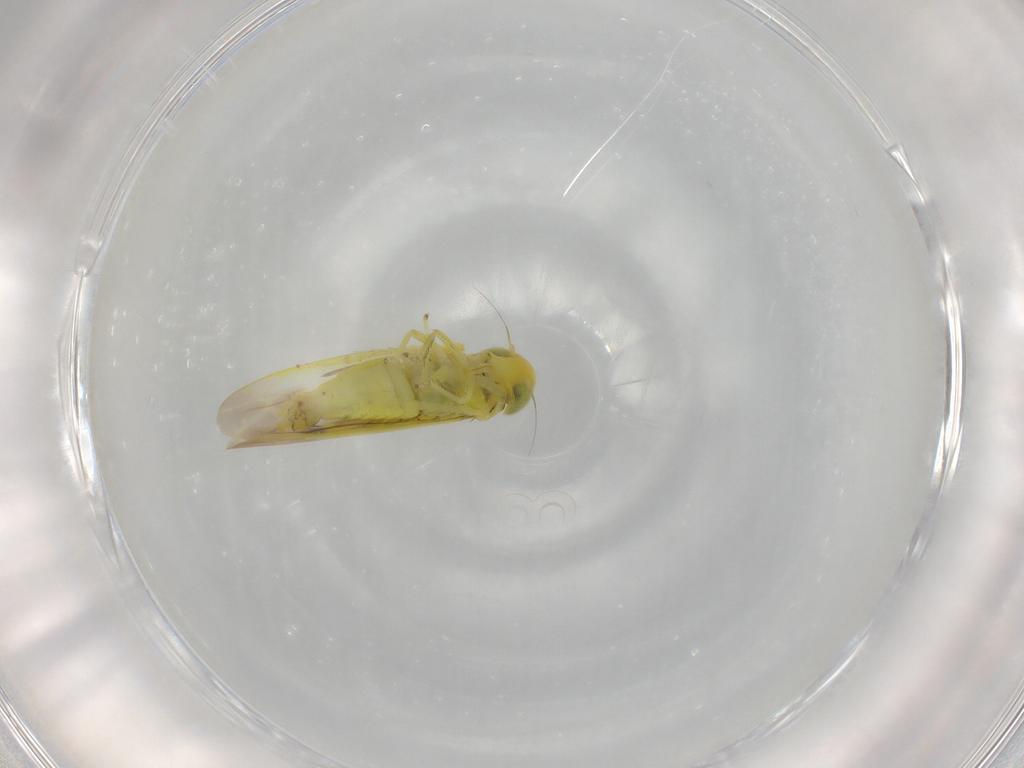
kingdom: Animalia
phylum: Arthropoda
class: Insecta
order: Hemiptera
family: Cicadellidae
